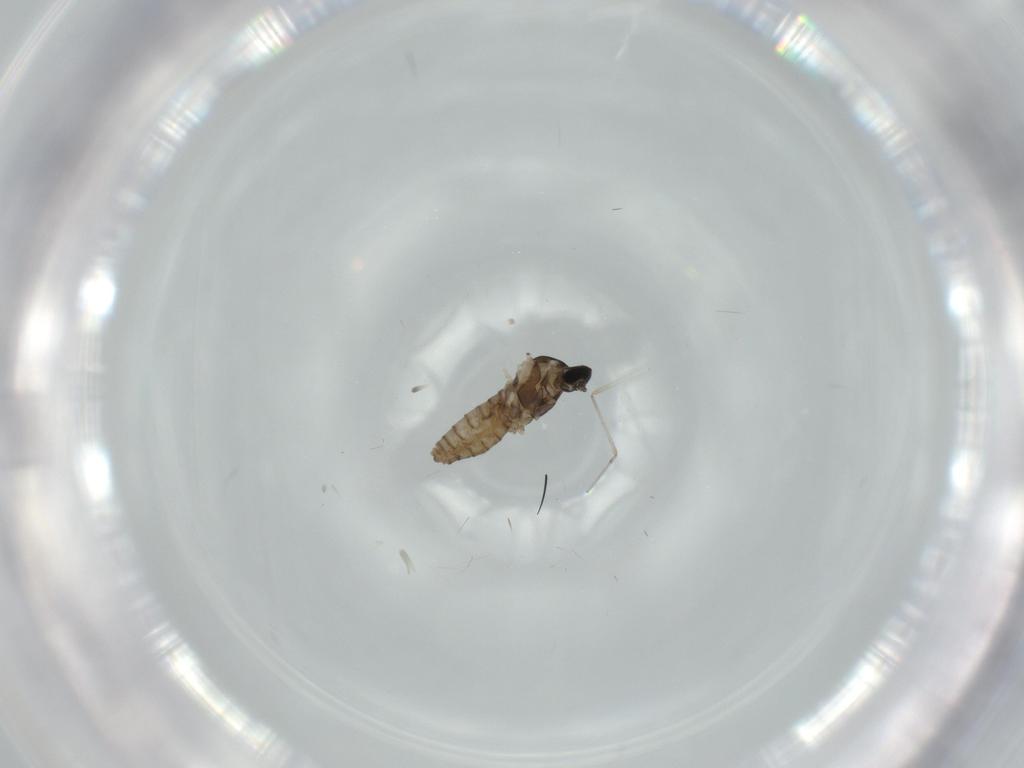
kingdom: Animalia
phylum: Arthropoda
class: Insecta
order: Diptera
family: Cecidomyiidae
